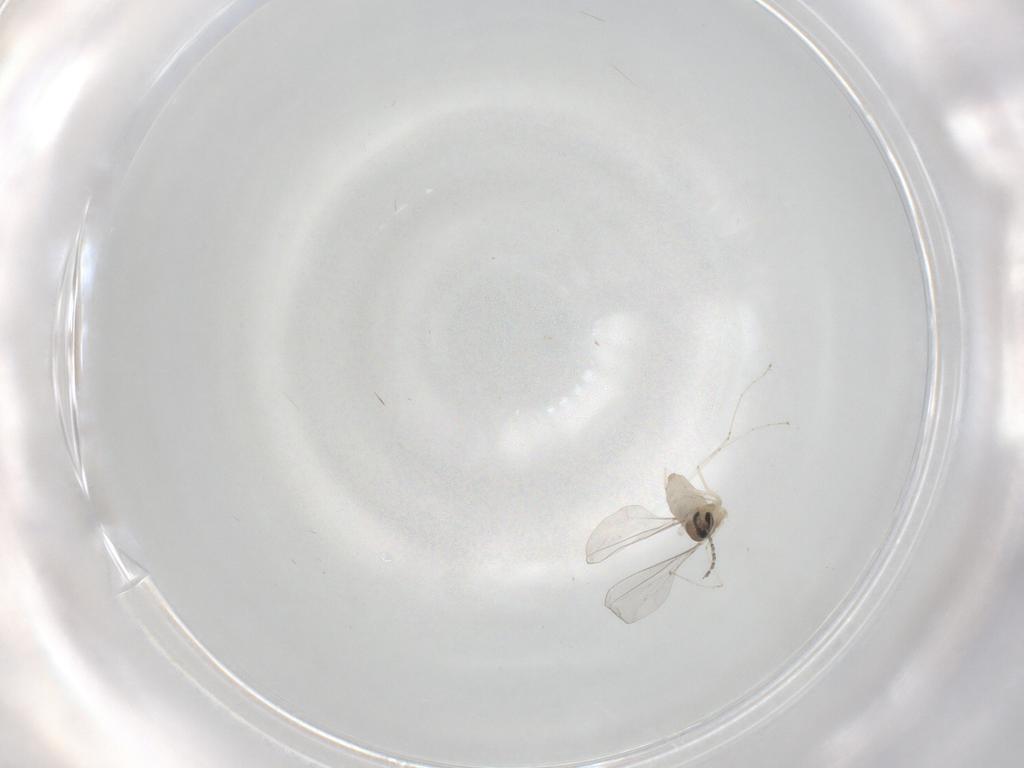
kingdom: Animalia
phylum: Arthropoda
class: Insecta
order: Diptera
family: Cecidomyiidae
